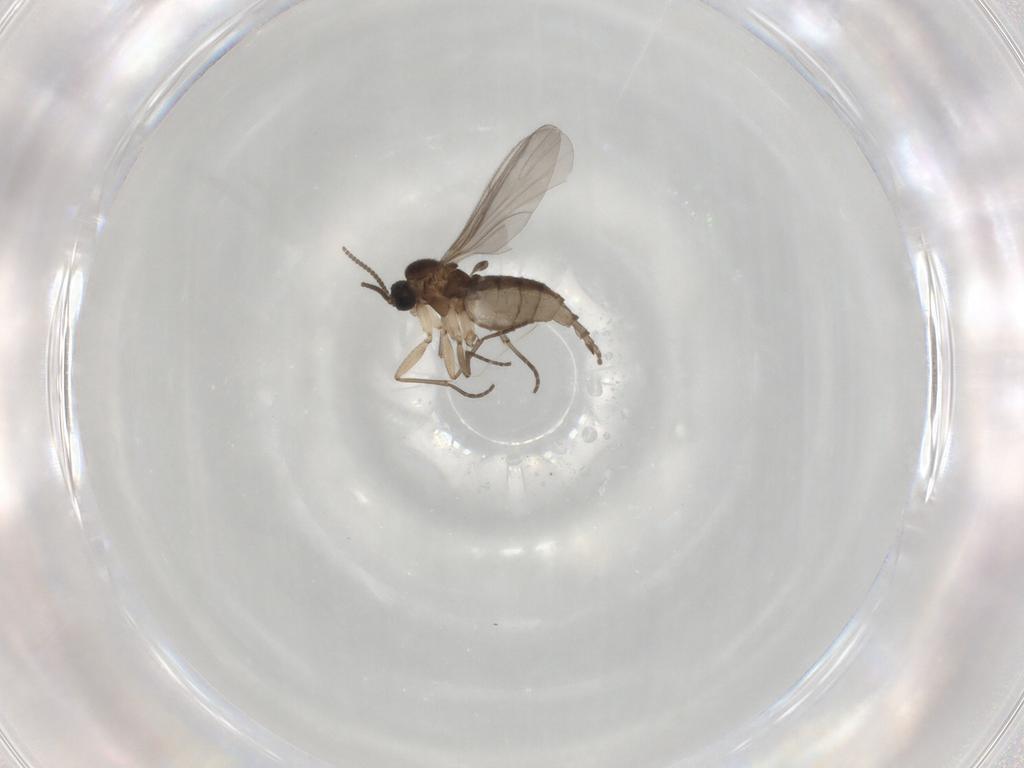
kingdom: Animalia
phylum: Arthropoda
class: Insecta
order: Diptera
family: Sciaridae
